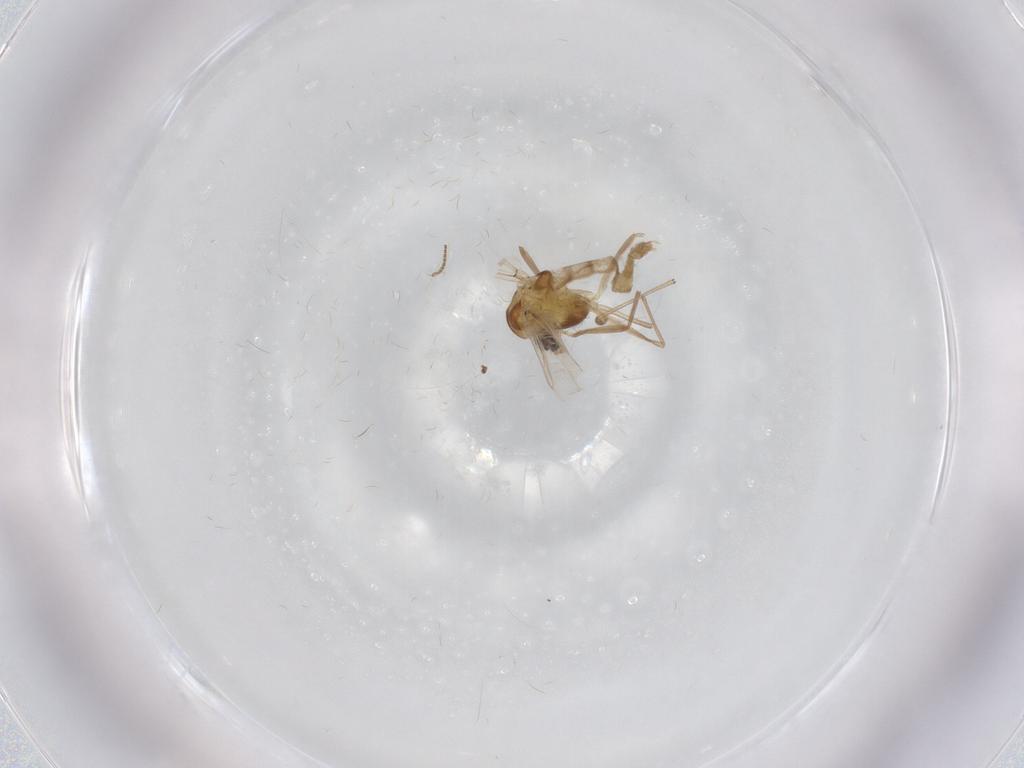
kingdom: Animalia
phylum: Arthropoda
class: Insecta
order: Diptera
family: Chironomidae
